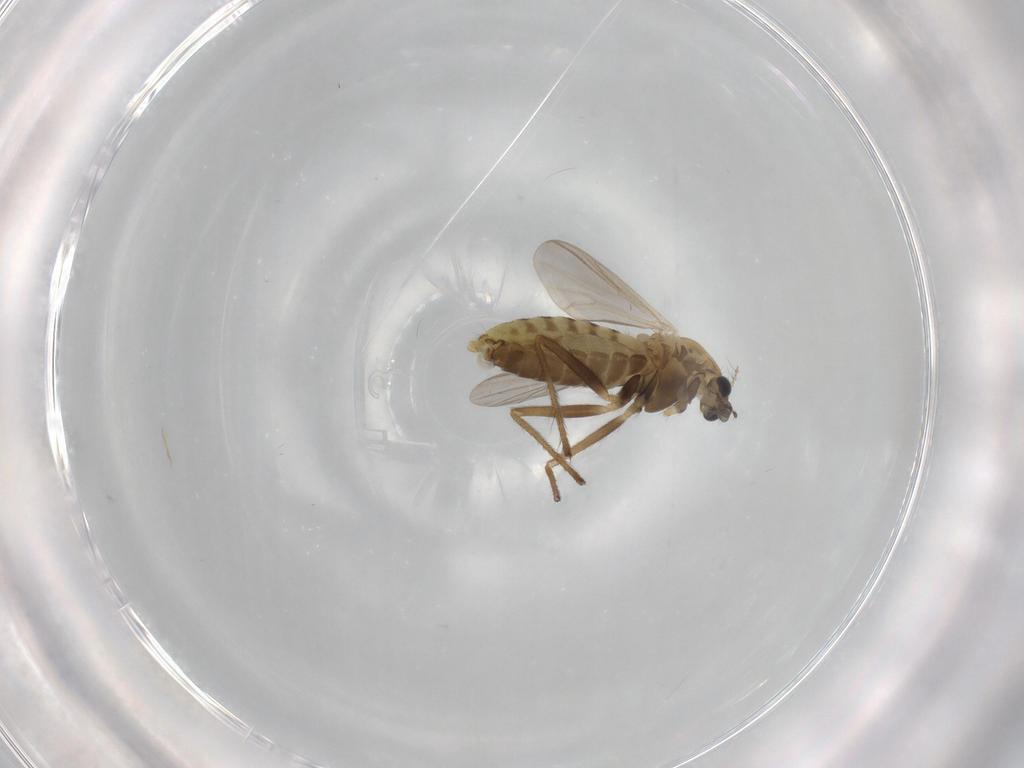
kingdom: Animalia
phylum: Arthropoda
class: Insecta
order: Diptera
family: Chironomidae
